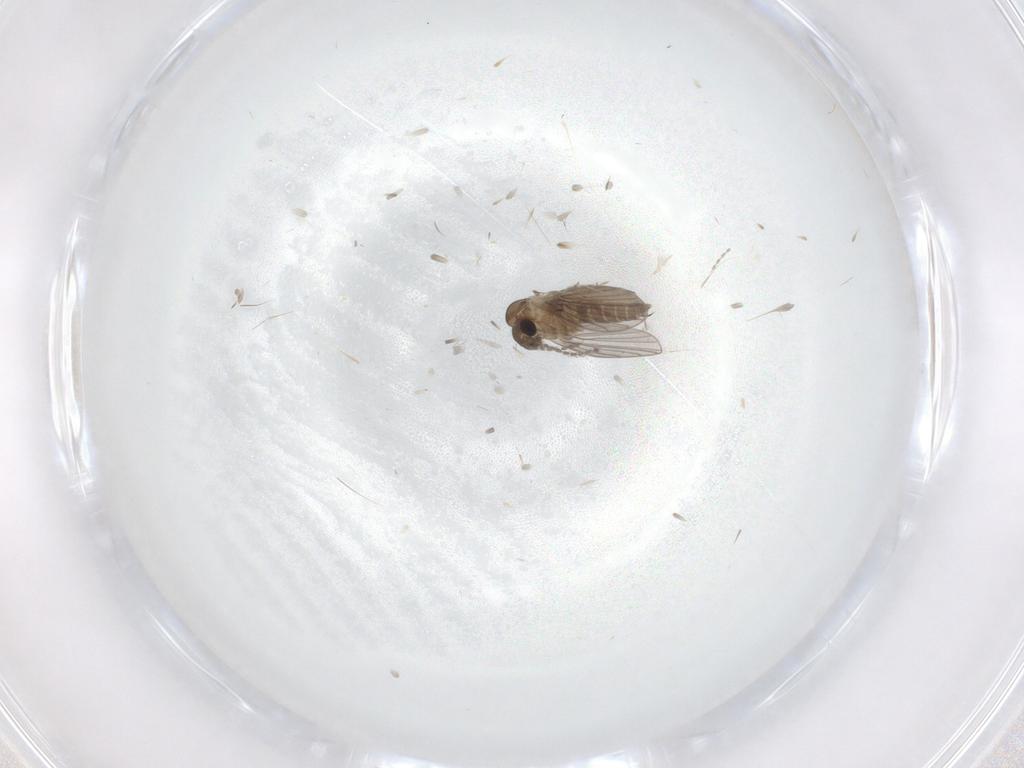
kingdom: Animalia
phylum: Arthropoda
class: Insecta
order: Diptera
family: Sciaridae
